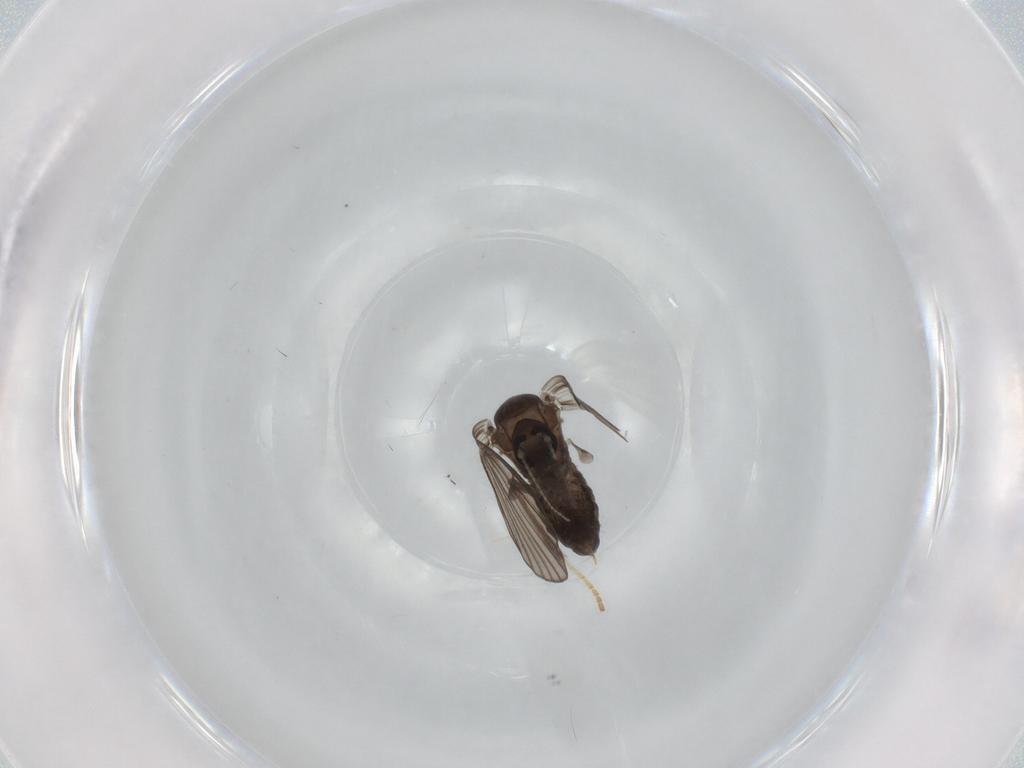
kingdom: Animalia
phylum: Arthropoda
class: Insecta
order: Diptera
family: Psychodidae
